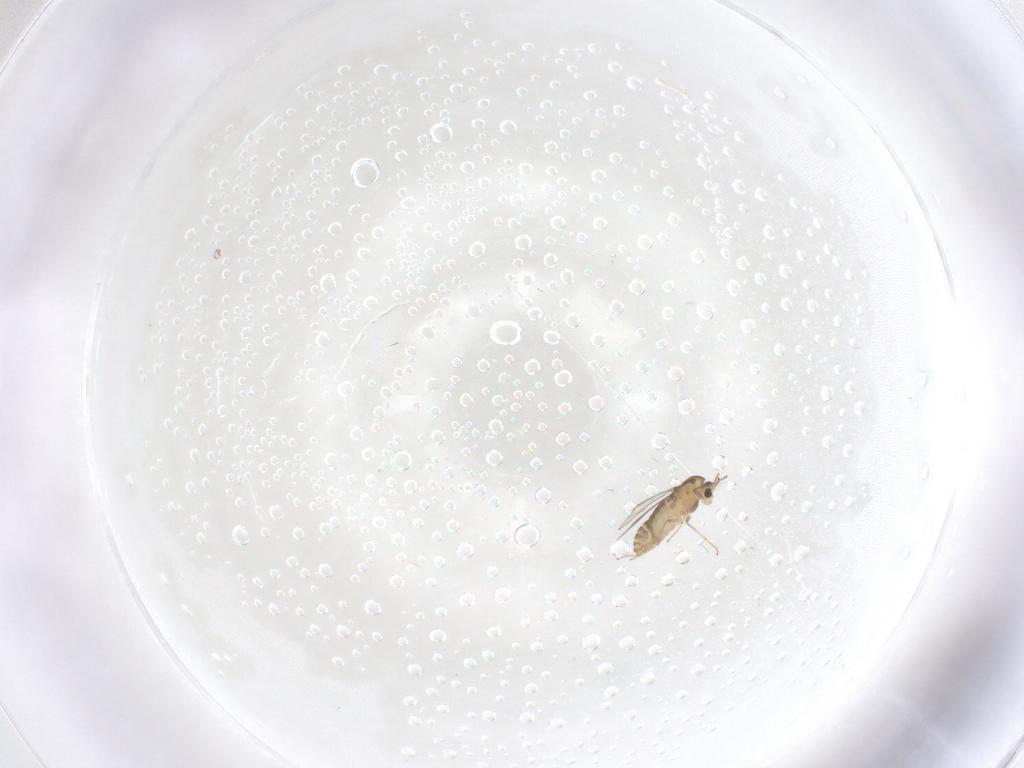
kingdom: Animalia
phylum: Arthropoda
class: Insecta
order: Diptera
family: Chironomidae
